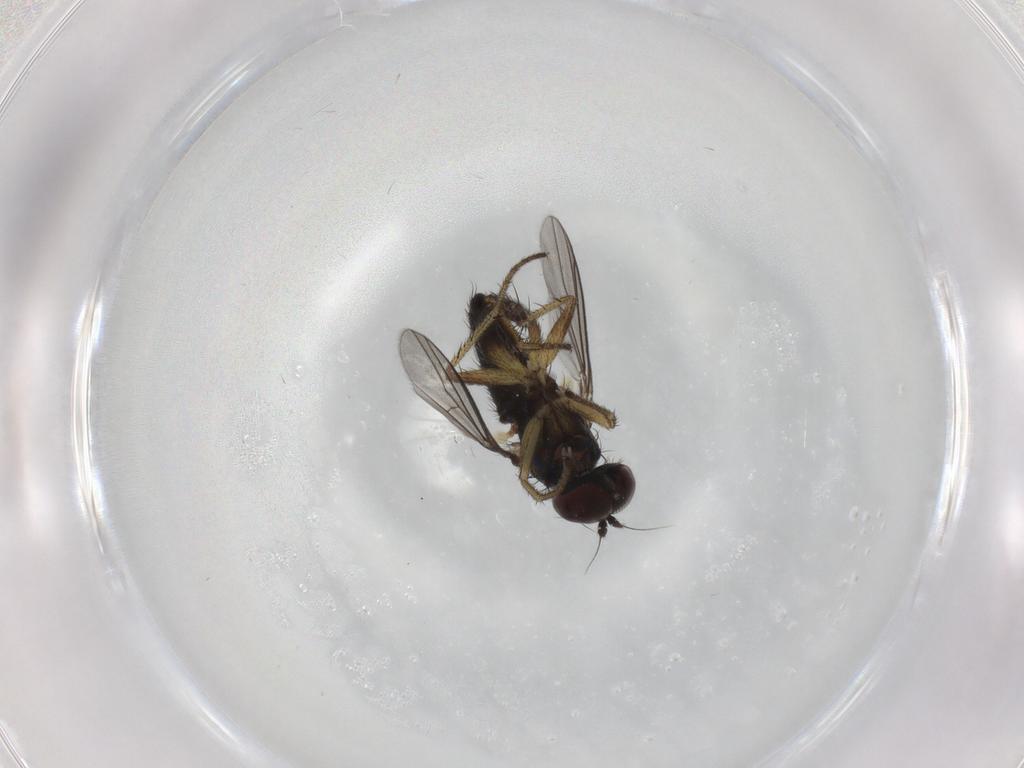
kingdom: Animalia
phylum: Arthropoda
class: Insecta
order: Diptera
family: Dolichopodidae
